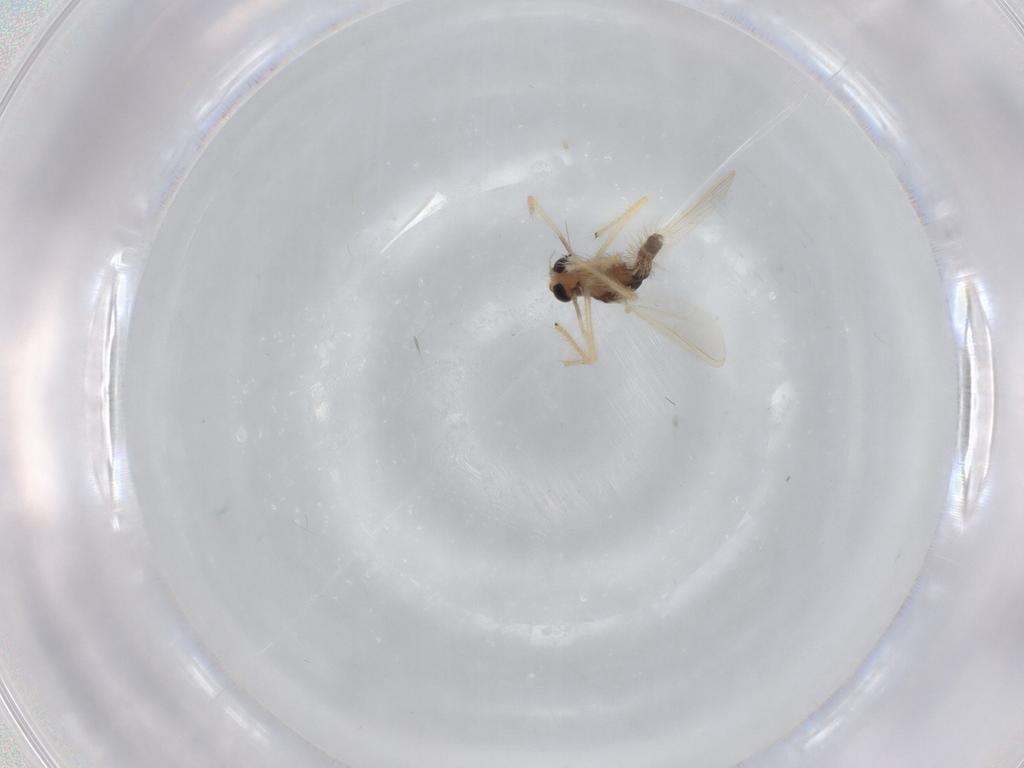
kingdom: Animalia
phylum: Arthropoda
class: Insecta
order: Diptera
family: Chironomidae
